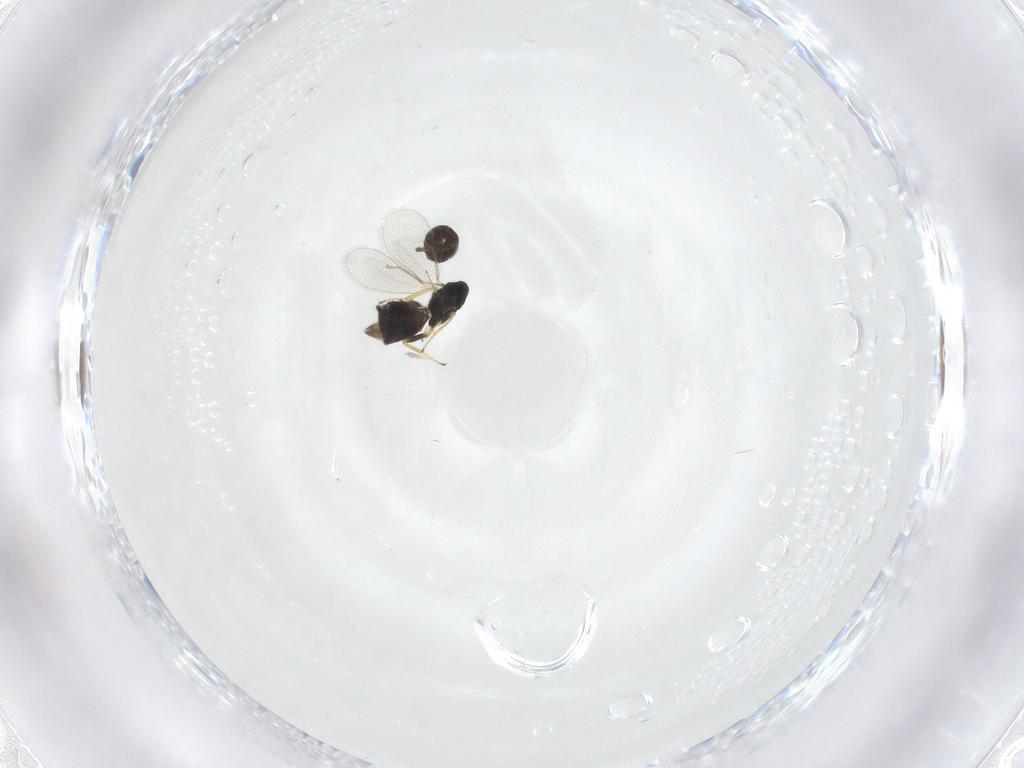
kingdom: Animalia
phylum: Arthropoda
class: Insecta
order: Hymenoptera
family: Eulophidae
